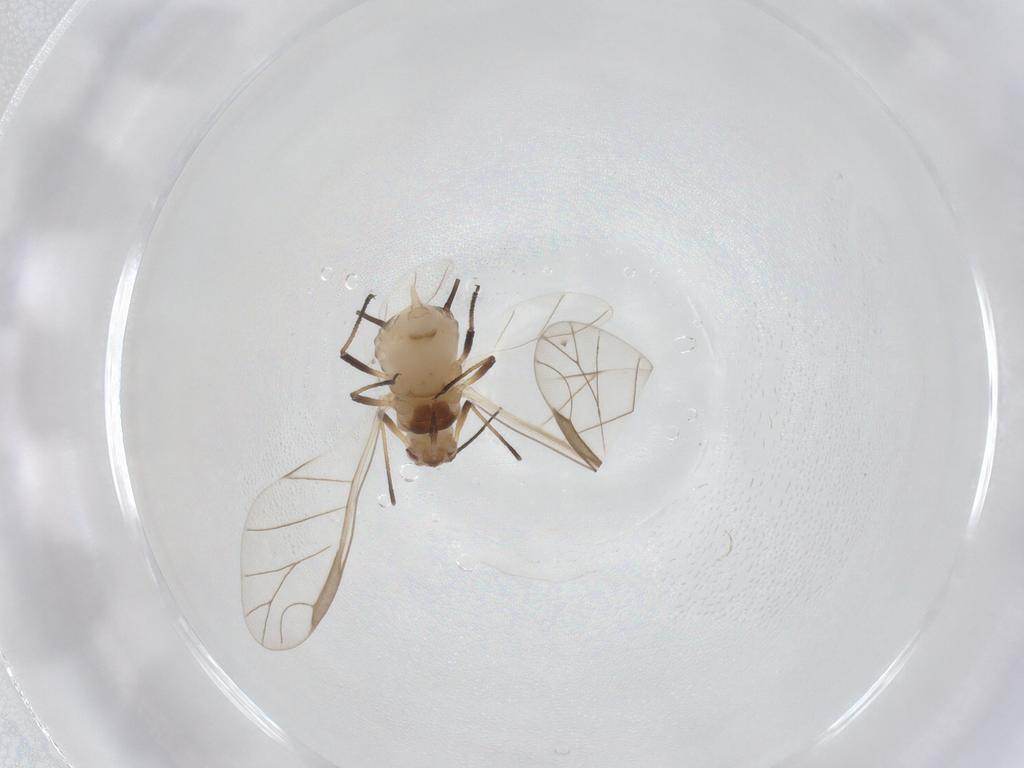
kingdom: Animalia
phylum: Arthropoda
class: Insecta
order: Hemiptera
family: Aphididae
